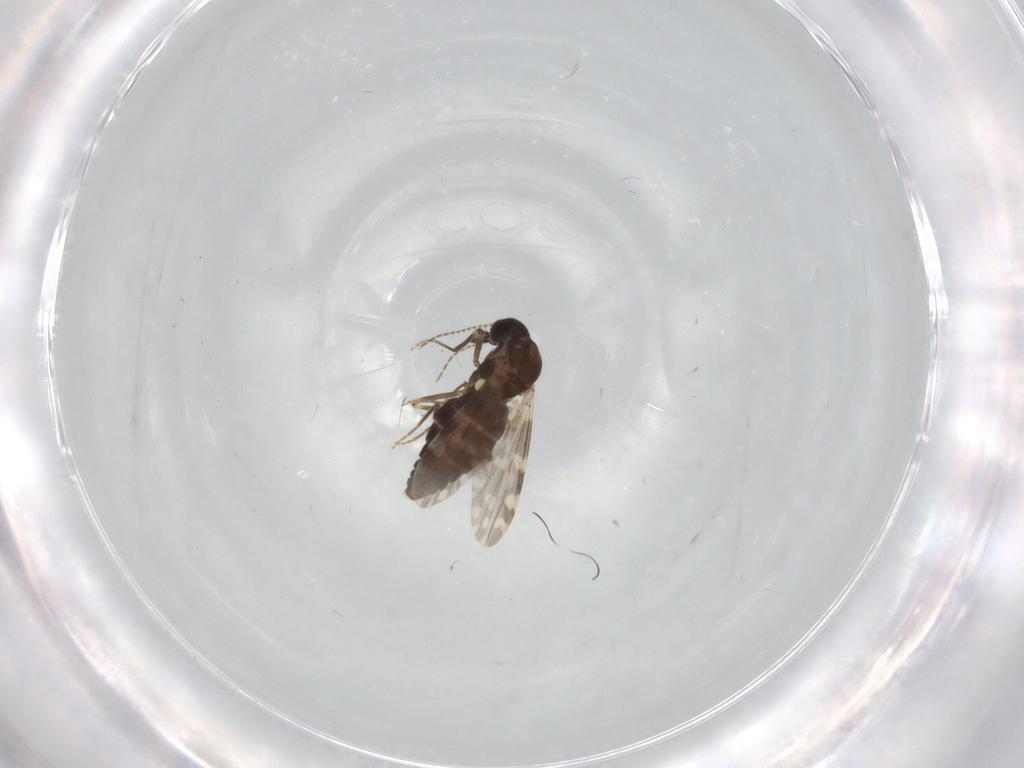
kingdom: Animalia
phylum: Arthropoda
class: Insecta
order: Diptera
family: Ceratopogonidae
